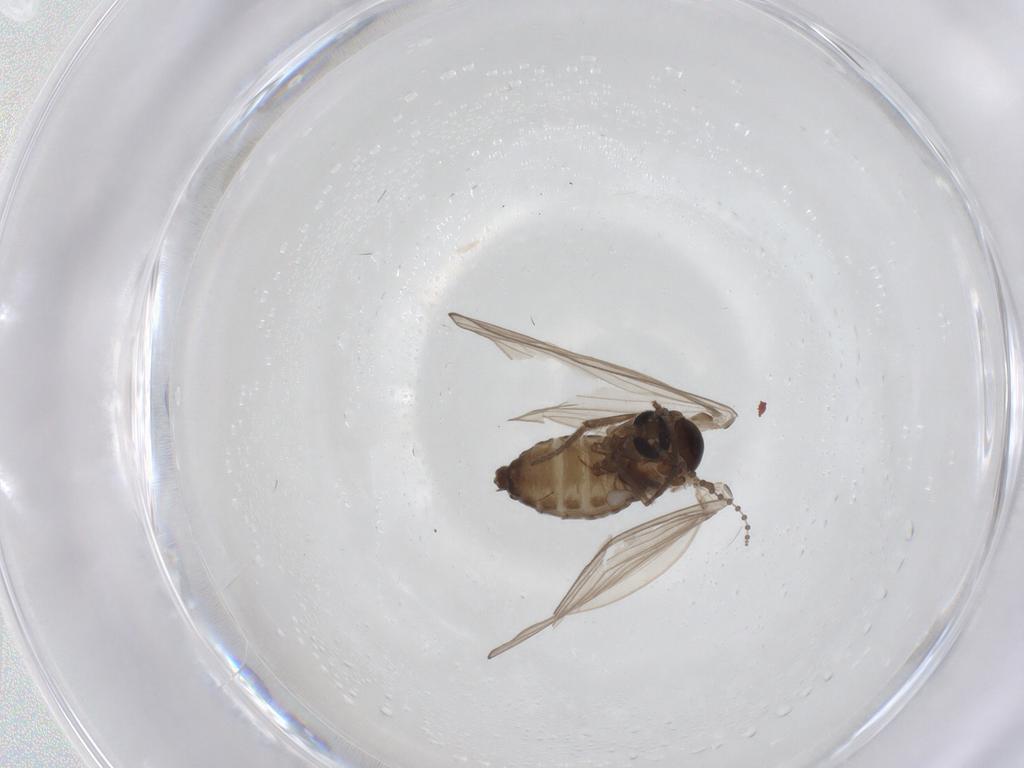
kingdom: Animalia
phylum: Arthropoda
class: Insecta
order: Diptera
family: Psychodidae
